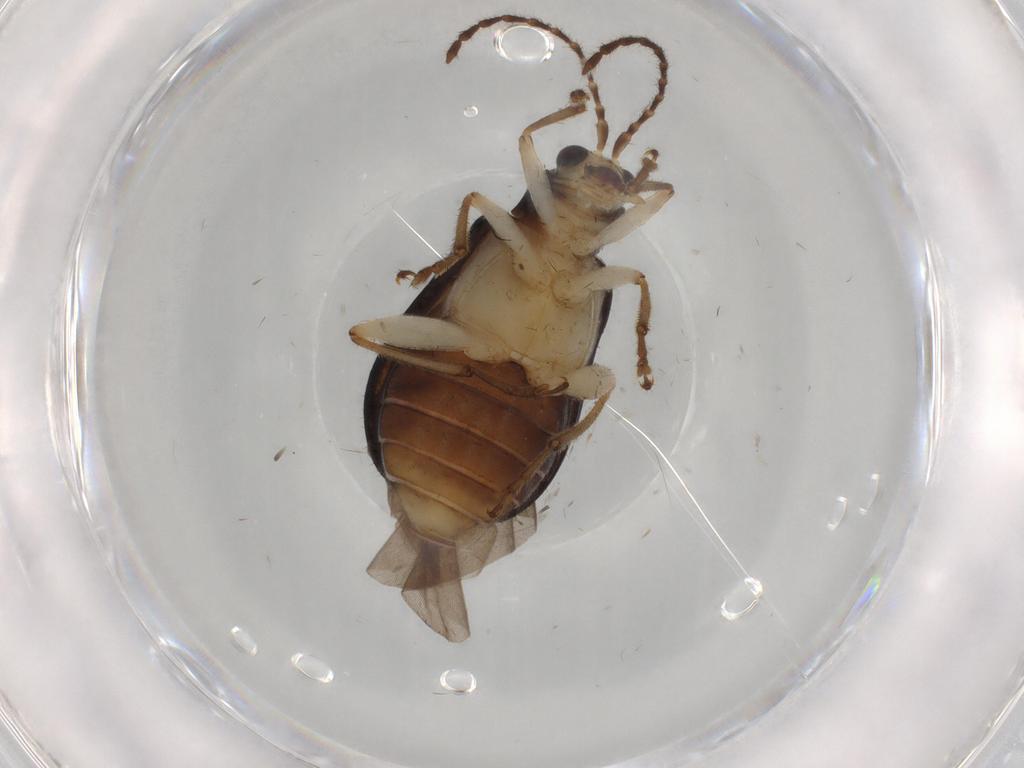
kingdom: Animalia
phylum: Arthropoda
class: Insecta
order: Coleoptera
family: Chrysomelidae
